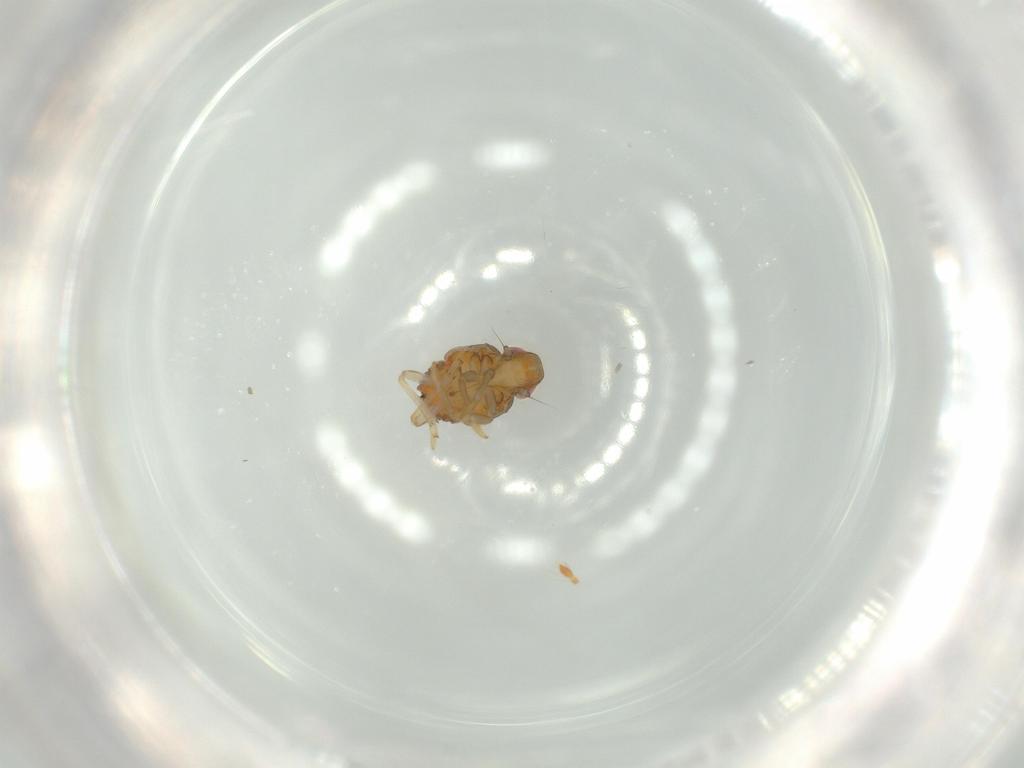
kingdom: Animalia
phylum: Arthropoda
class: Insecta
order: Hemiptera
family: Issidae
